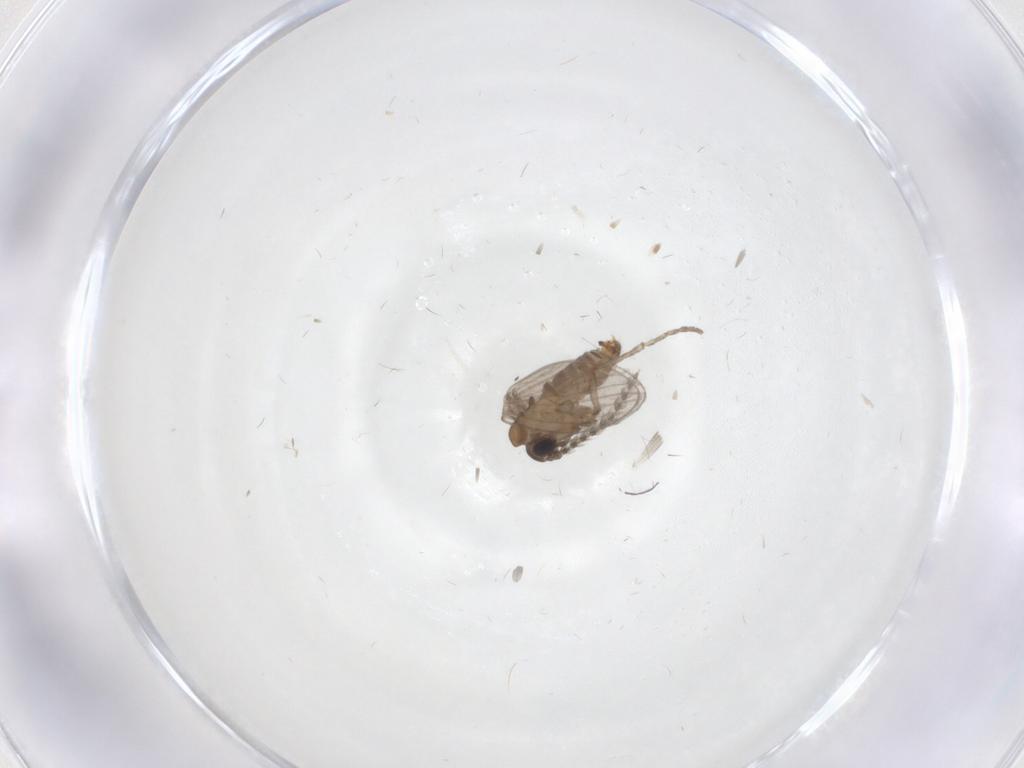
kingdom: Animalia
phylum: Arthropoda
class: Insecta
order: Diptera
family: Psychodidae
